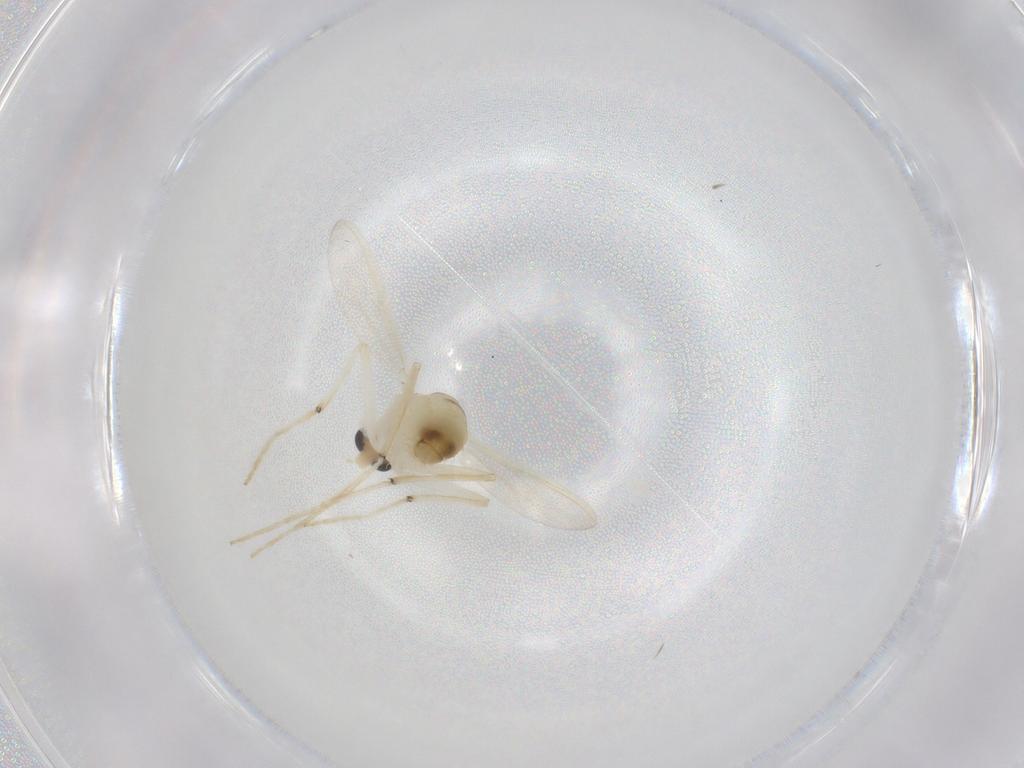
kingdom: Animalia
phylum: Arthropoda
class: Insecta
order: Diptera
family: Chironomidae
